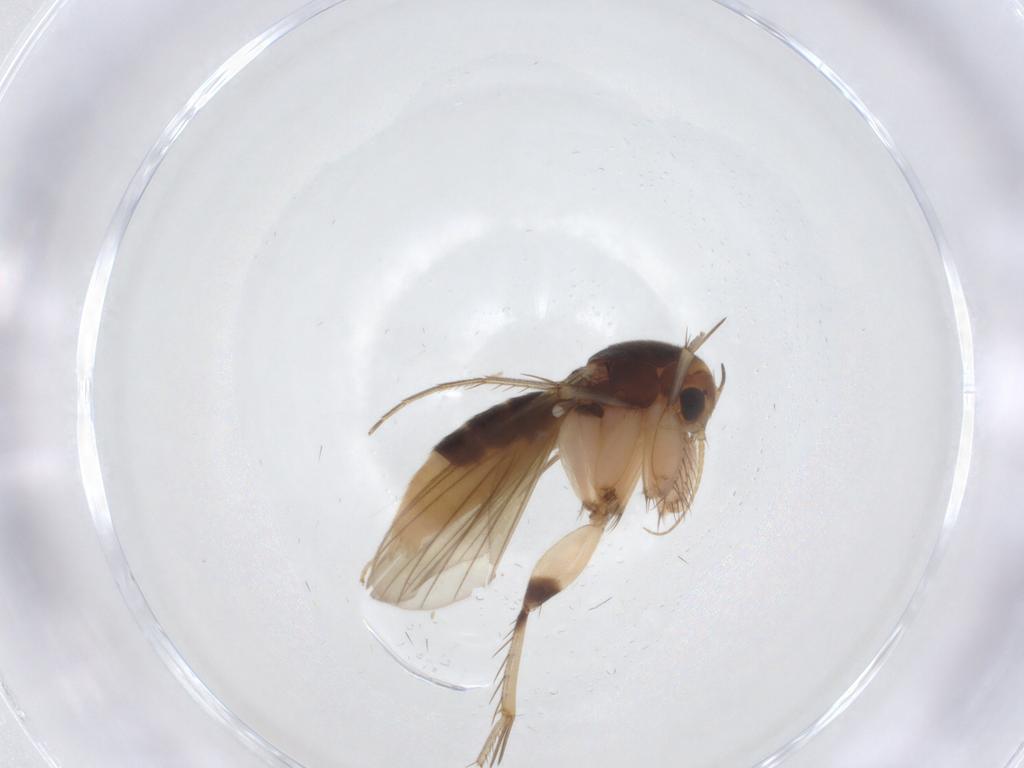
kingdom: Animalia
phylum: Arthropoda
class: Insecta
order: Diptera
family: Mycetophilidae
